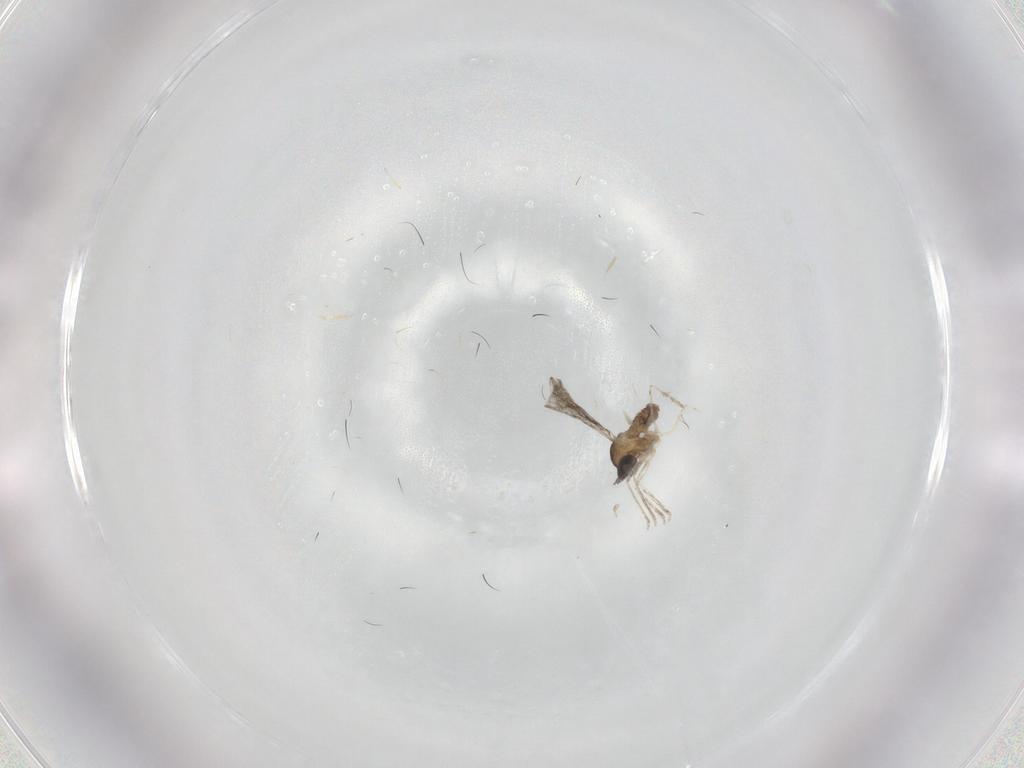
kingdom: Animalia
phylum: Arthropoda
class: Insecta
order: Diptera
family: Cecidomyiidae
